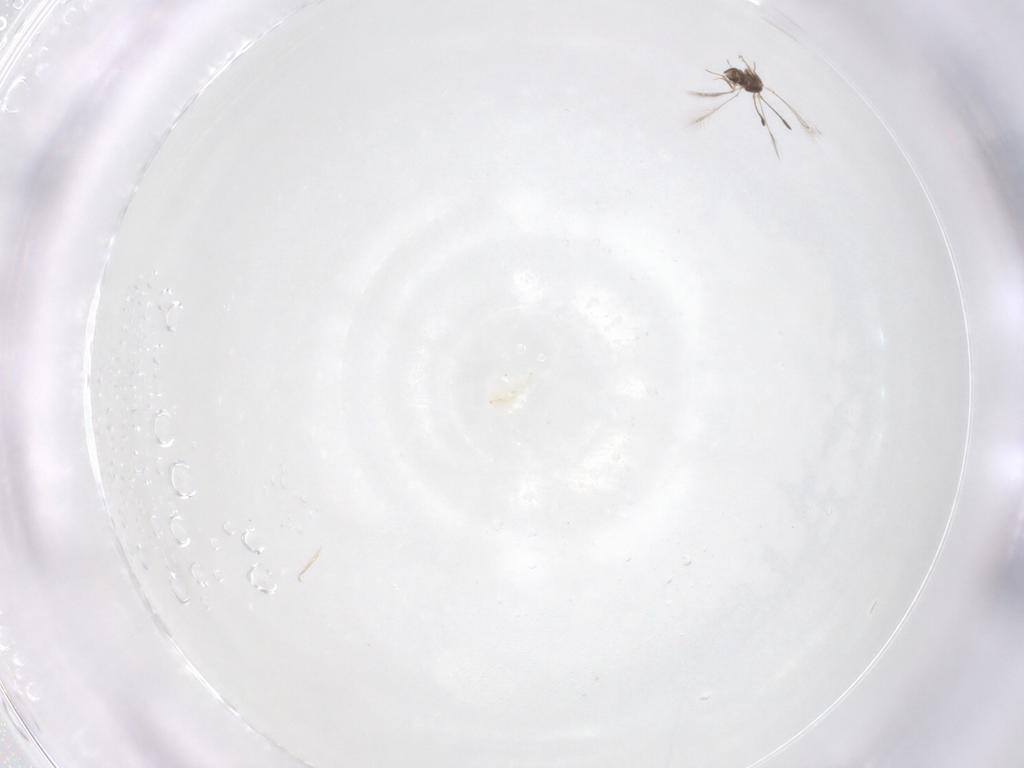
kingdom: Animalia
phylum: Arthropoda
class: Insecta
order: Hymenoptera
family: Mymaridae
